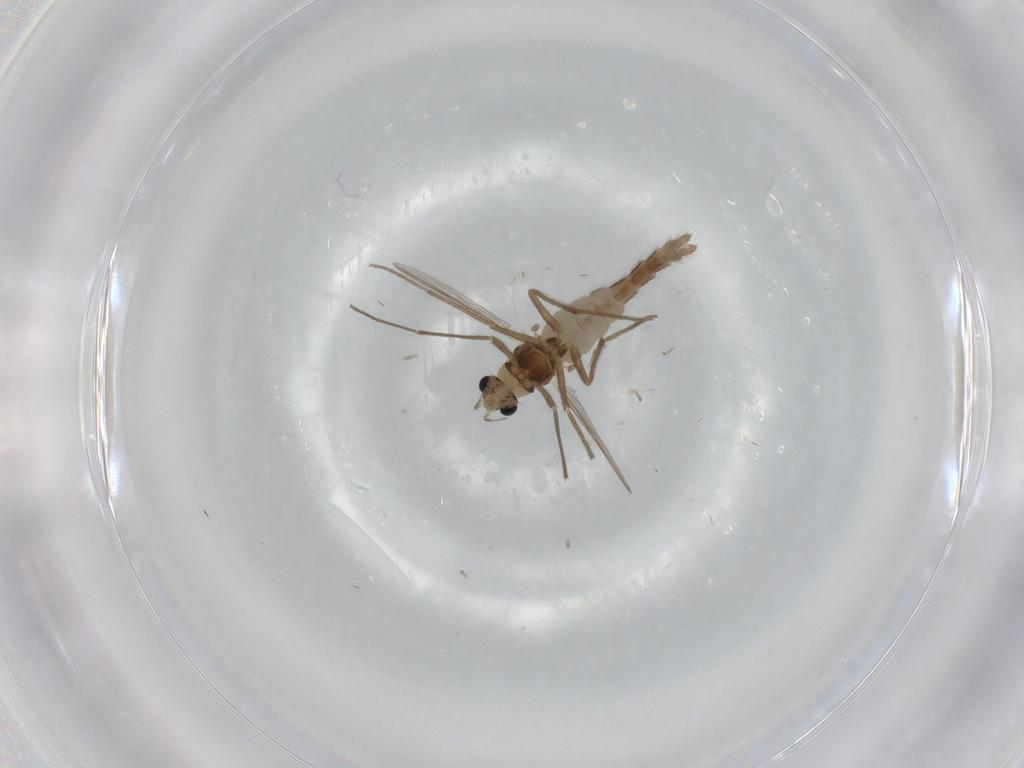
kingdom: Animalia
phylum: Arthropoda
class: Insecta
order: Diptera
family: Chironomidae
